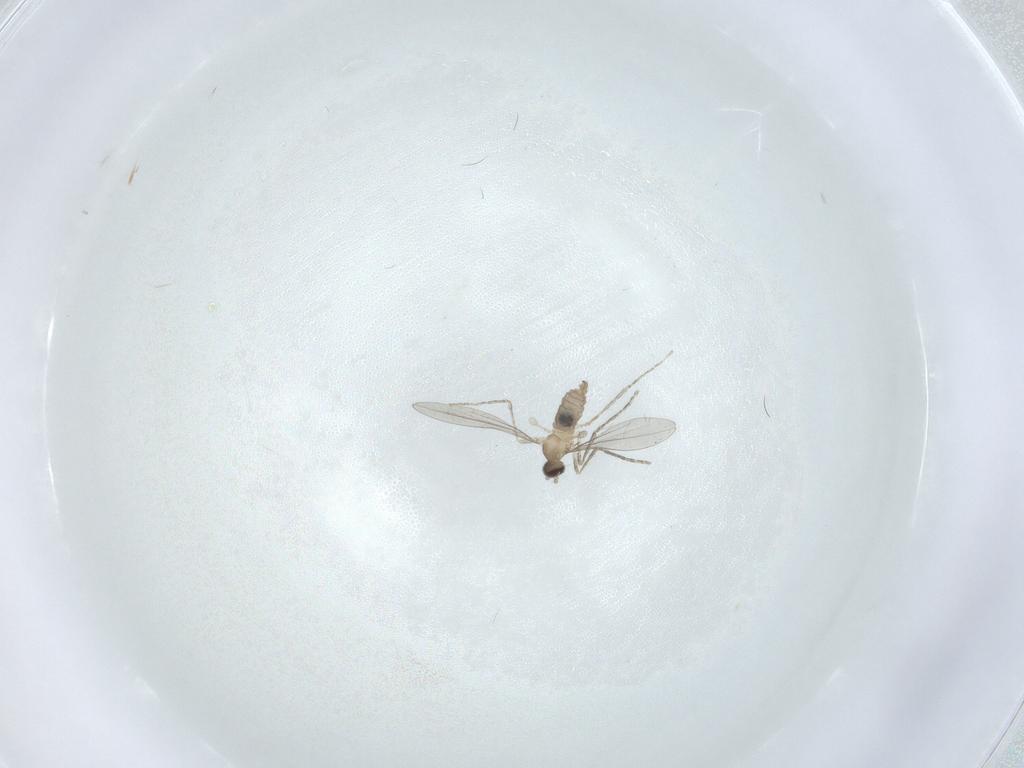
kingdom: Animalia
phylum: Arthropoda
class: Insecta
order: Diptera
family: Cecidomyiidae
